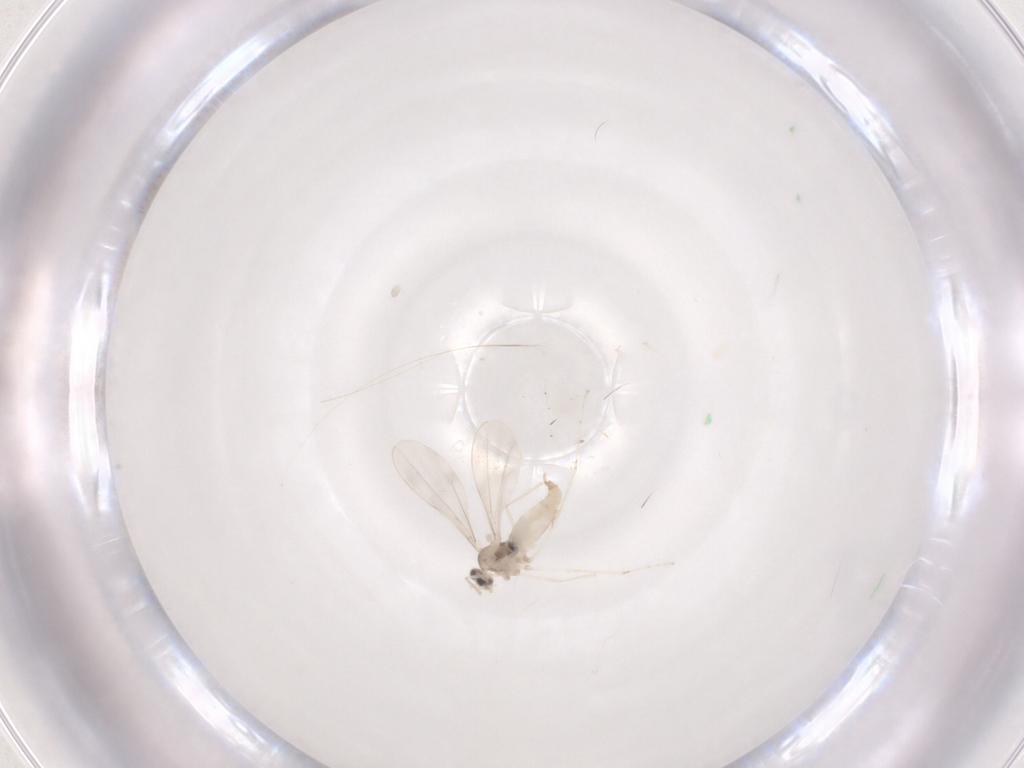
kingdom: Animalia
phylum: Arthropoda
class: Insecta
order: Diptera
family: Cecidomyiidae
